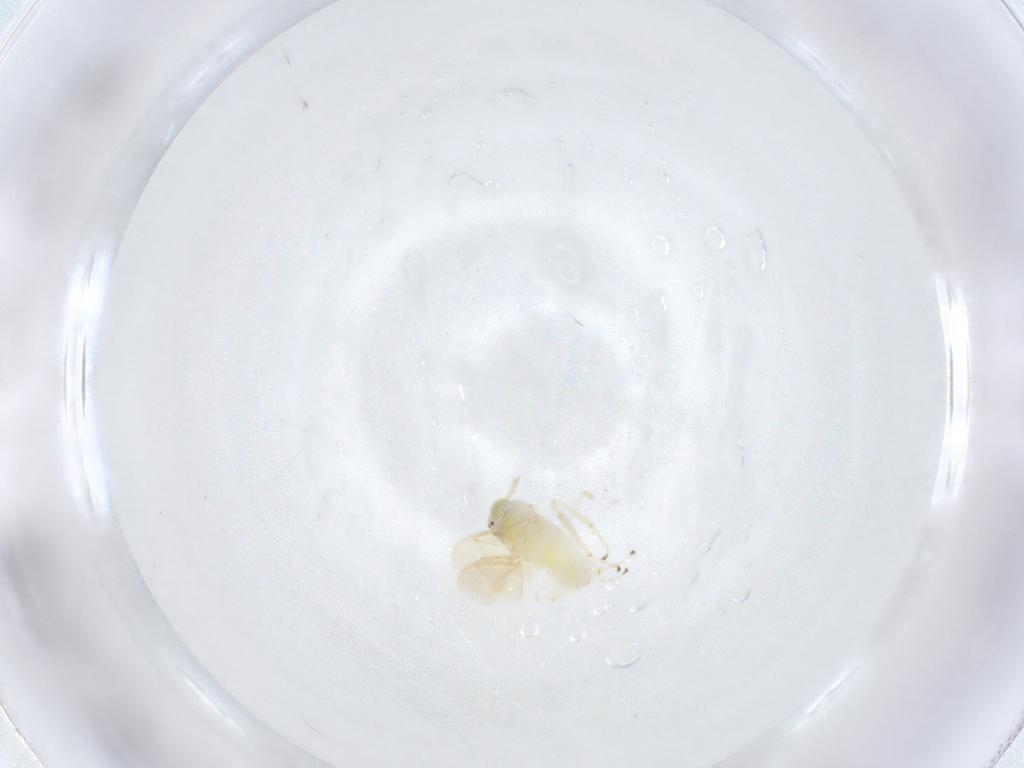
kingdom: Animalia
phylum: Arthropoda
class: Insecta
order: Hymenoptera
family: Aphelinidae
